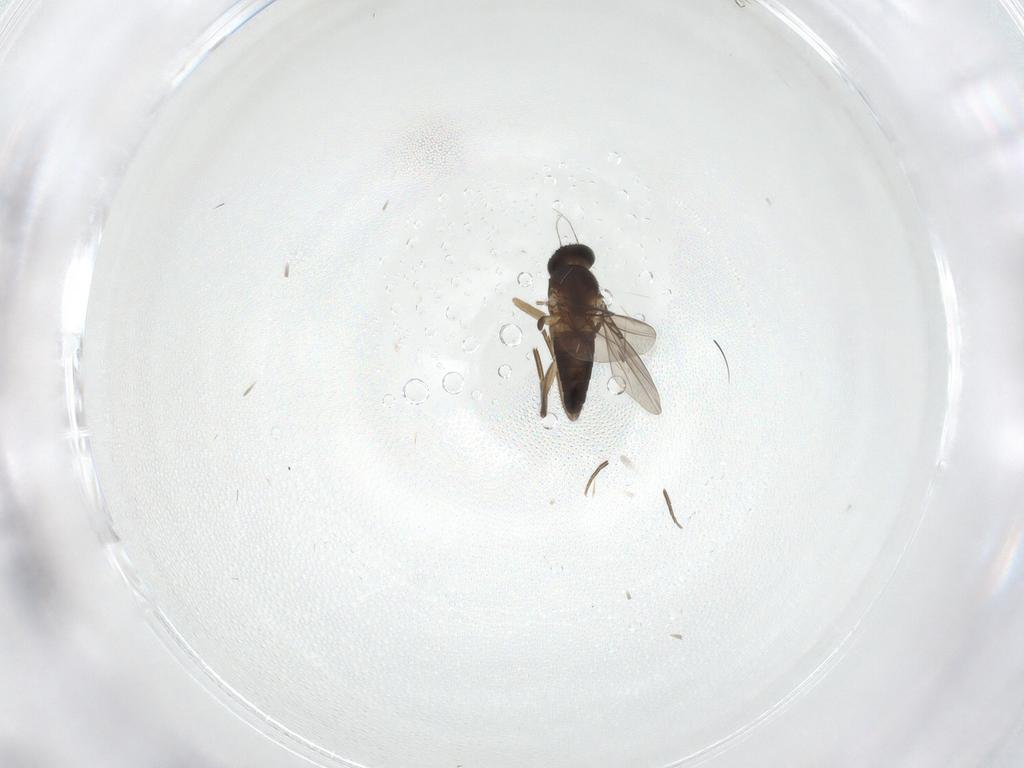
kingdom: Animalia
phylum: Arthropoda
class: Insecta
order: Diptera
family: Phoridae
